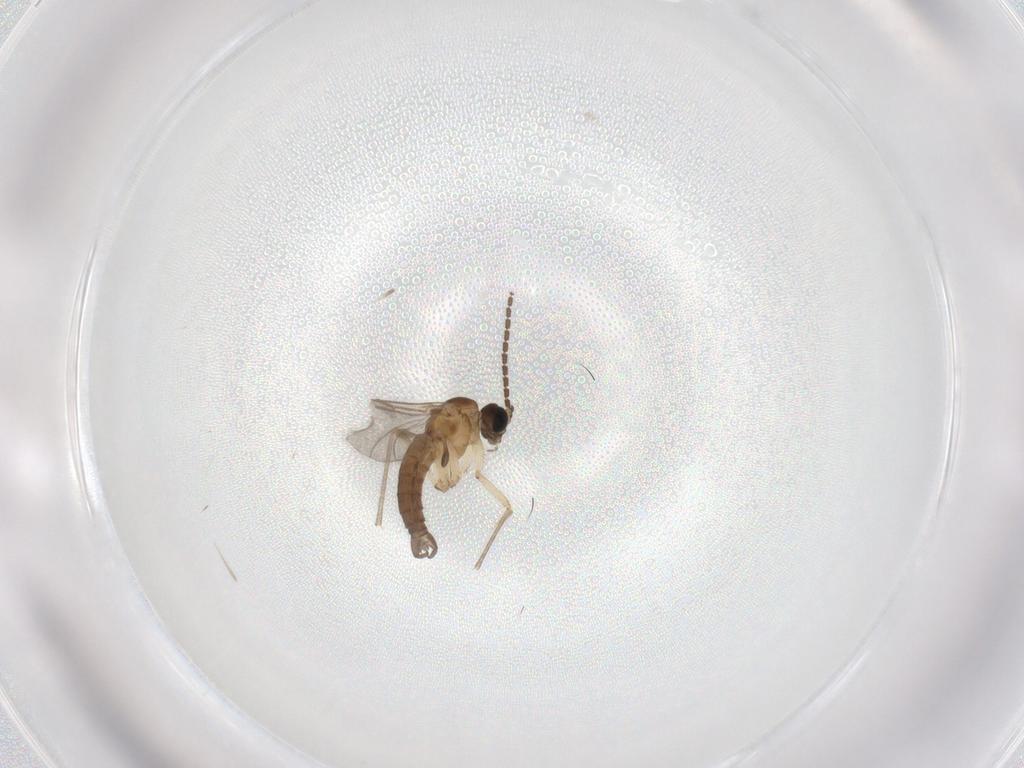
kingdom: Animalia
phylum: Arthropoda
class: Insecta
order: Diptera
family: Sciaridae
